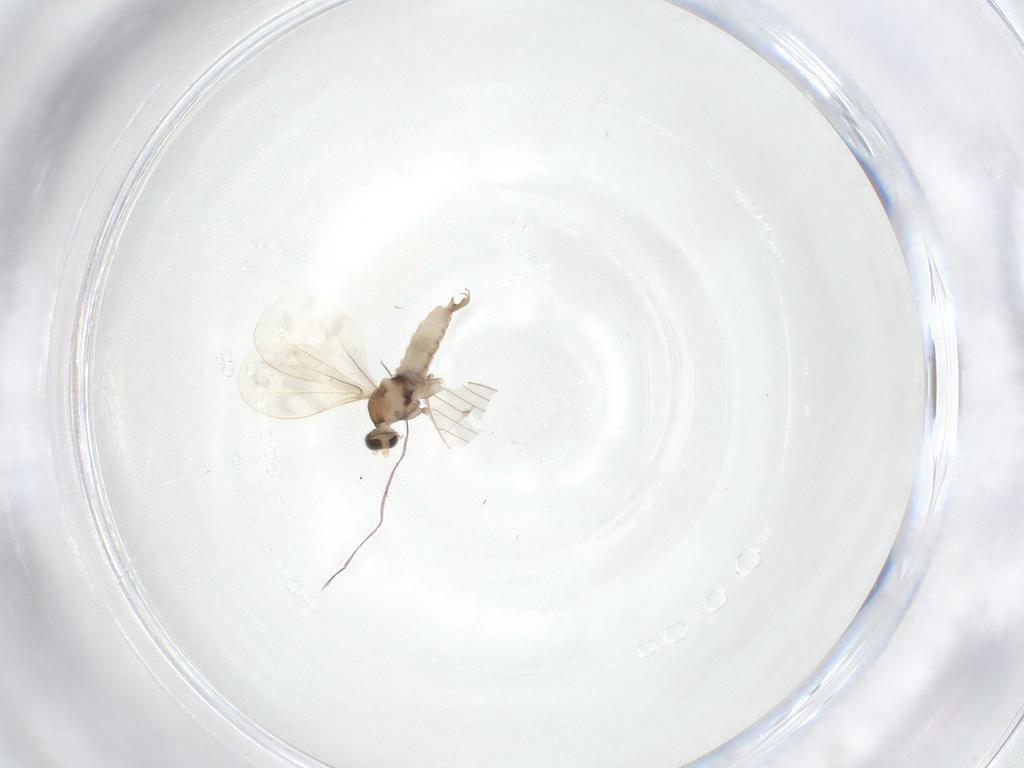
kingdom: Animalia
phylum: Arthropoda
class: Insecta
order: Diptera
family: Cecidomyiidae
